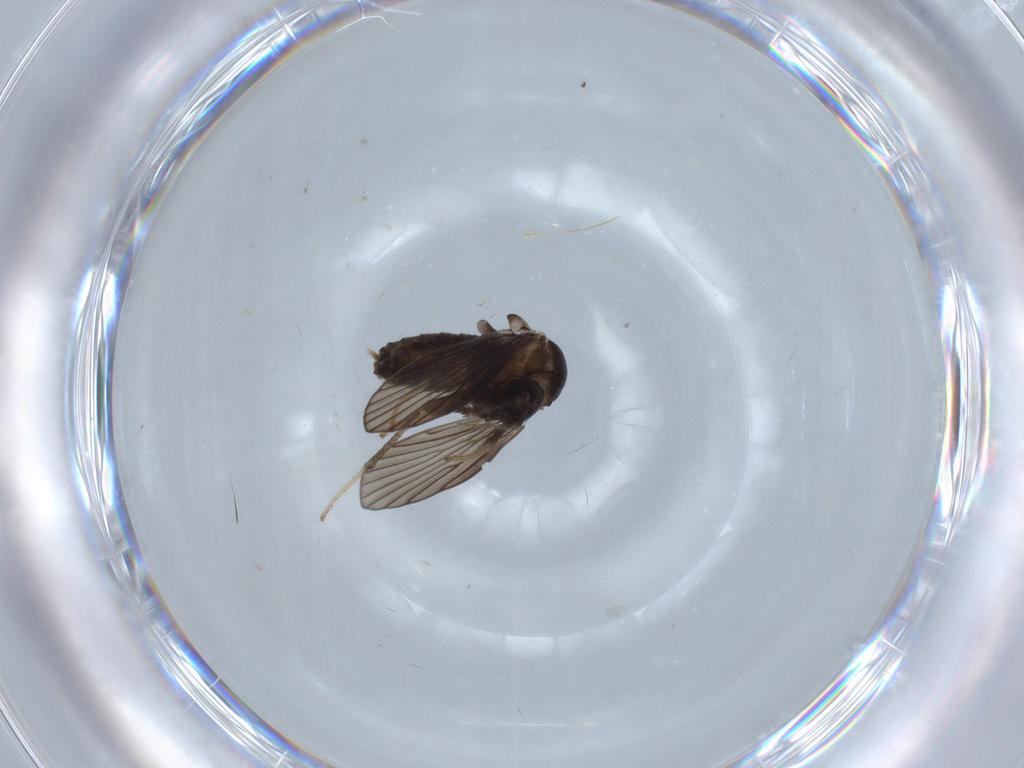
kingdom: Animalia
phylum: Arthropoda
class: Insecta
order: Diptera
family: Psychodidae
